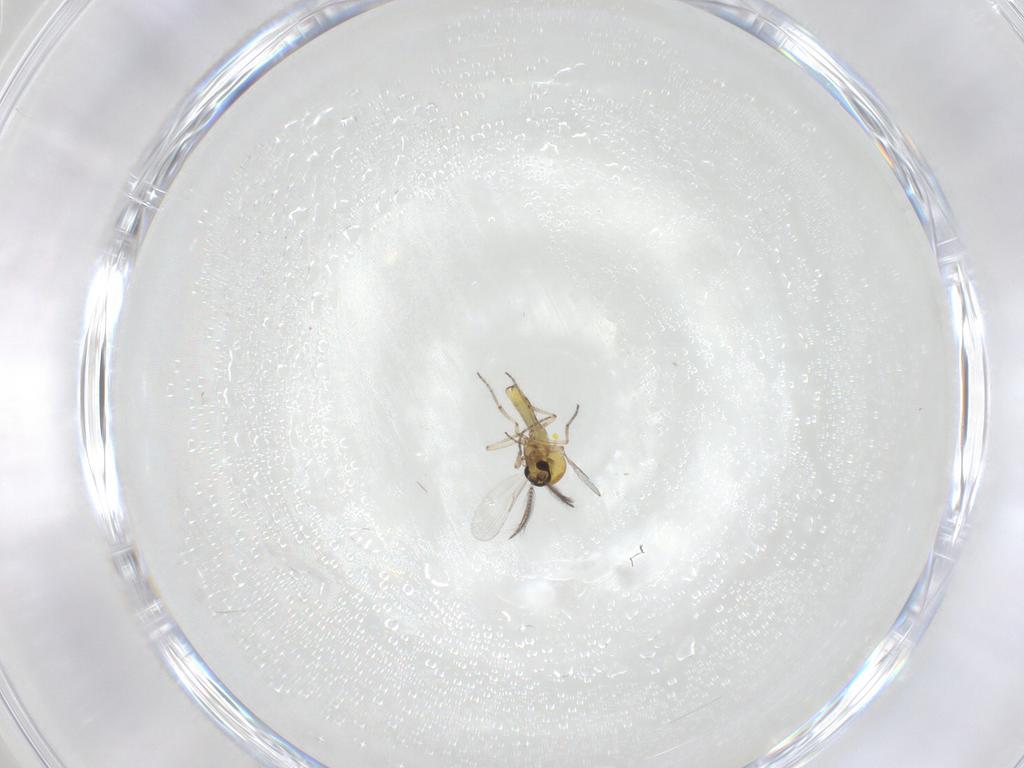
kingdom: Animalia
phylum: Arthropoda
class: Insecta
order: Diptera
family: Ceratopogonidae
